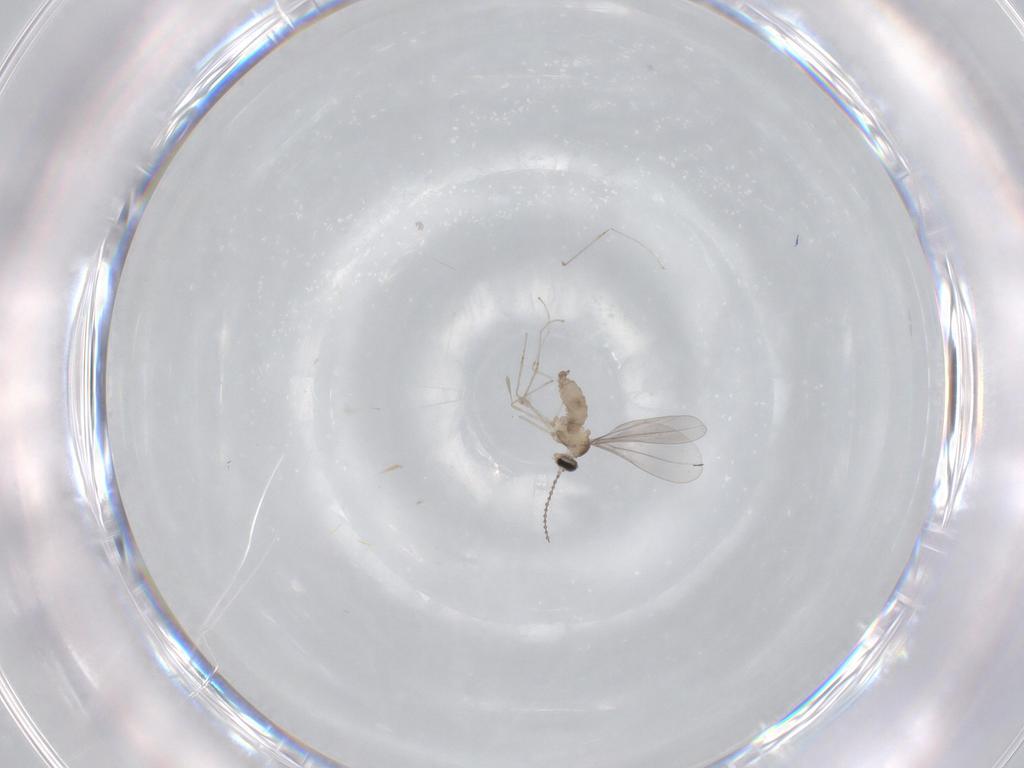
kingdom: Animalia
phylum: Arthropoda
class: Insecta
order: Diptera
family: Cecidomyiidae
